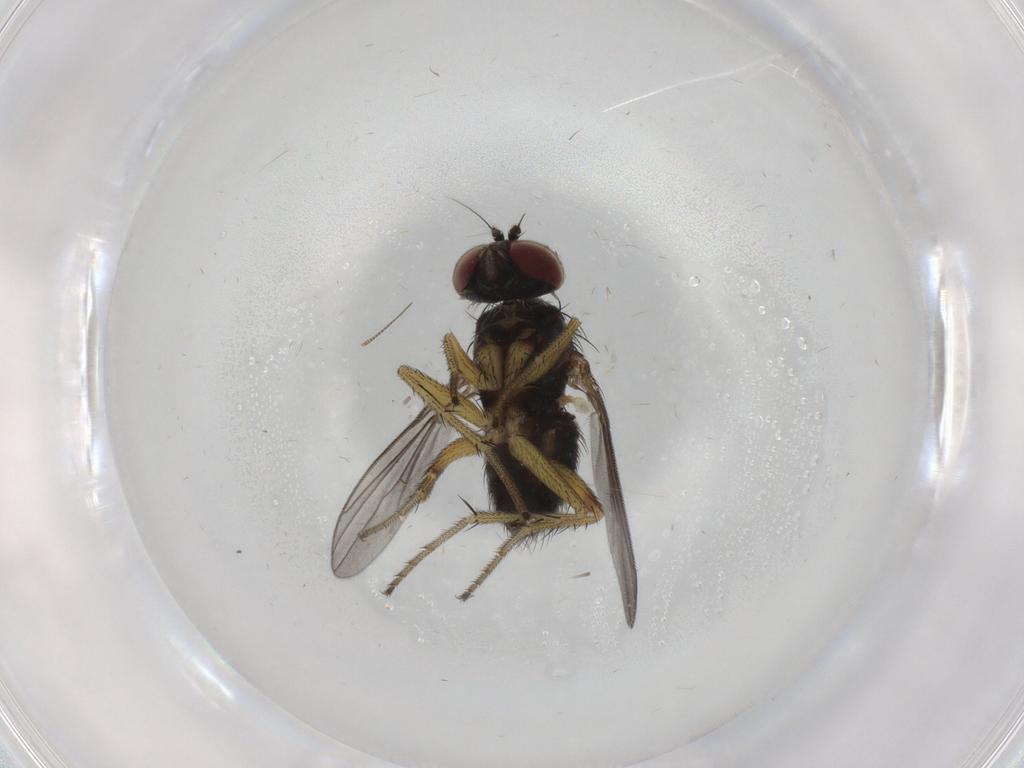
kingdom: Animalia
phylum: Arthropoda
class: Insecta
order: Diptera
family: Dolichopodidae
